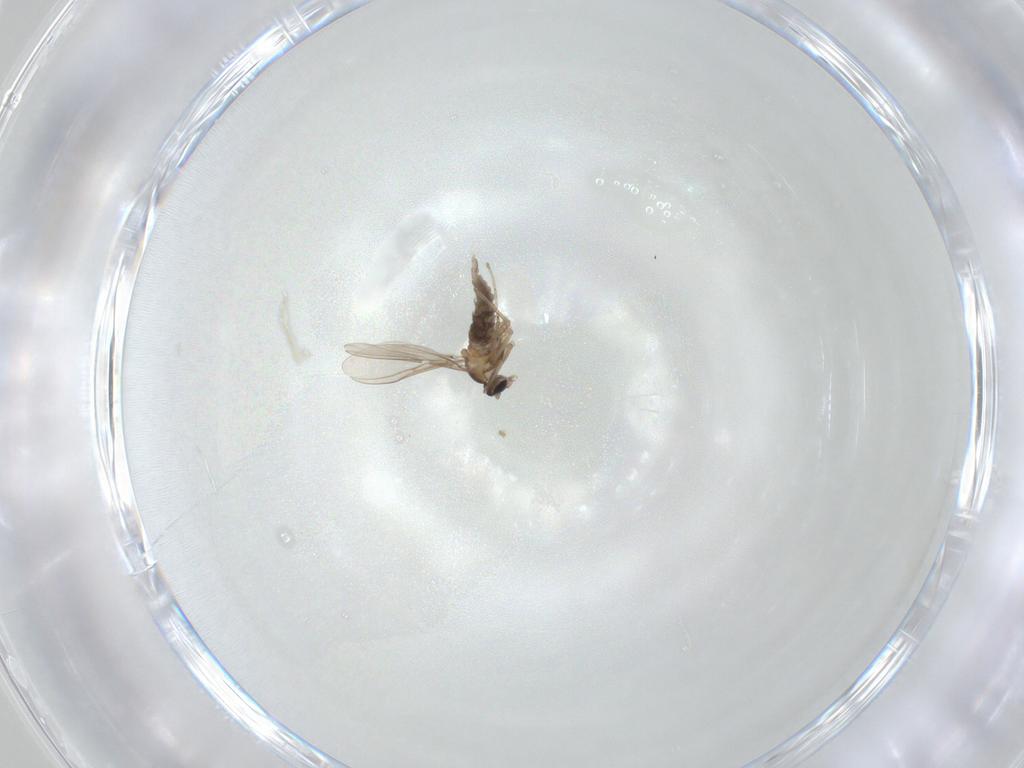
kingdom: Animalia
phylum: Arthropoda
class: Insecta
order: Diptera
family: Cecidomyiidae
